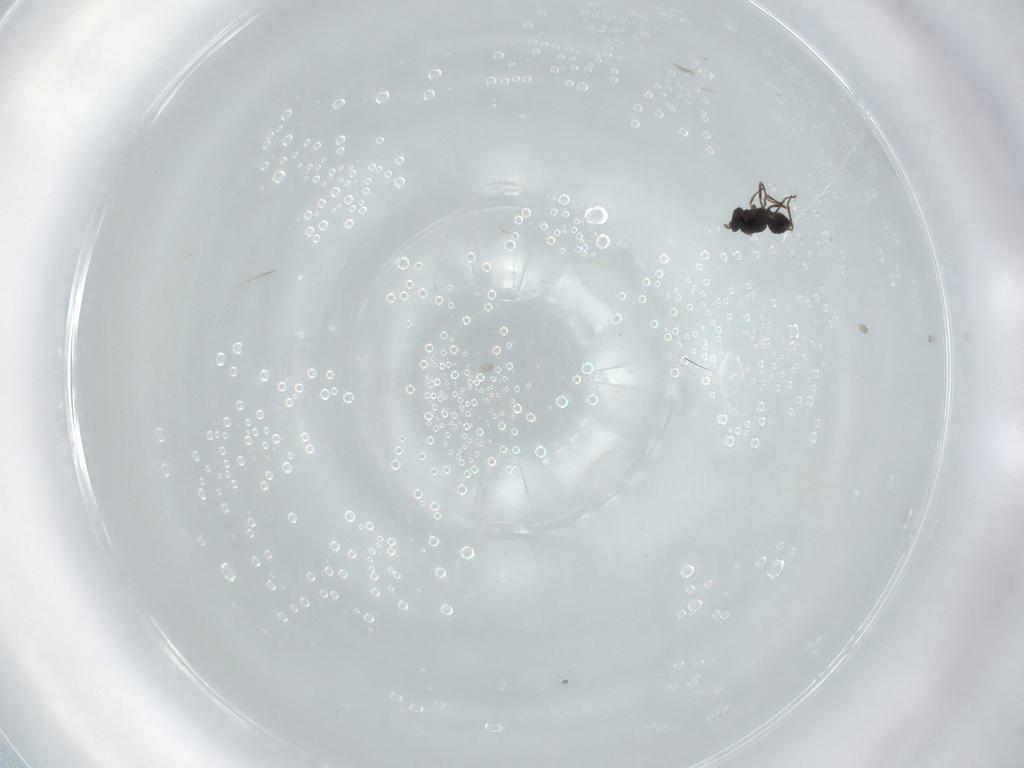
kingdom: Animalia
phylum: Arthropoda
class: Insecta
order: Hymenoptera
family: Mymaridae
